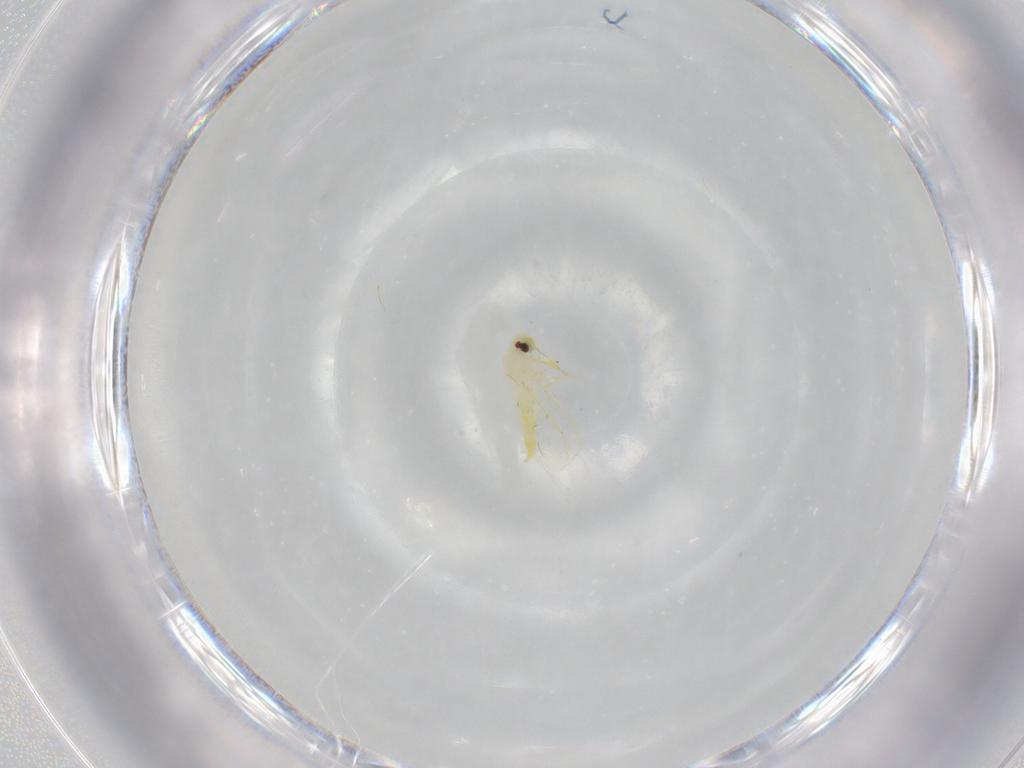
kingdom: Animalia
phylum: Arthropoda
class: Insecta
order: Hemiptera
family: Aleyrodidae
